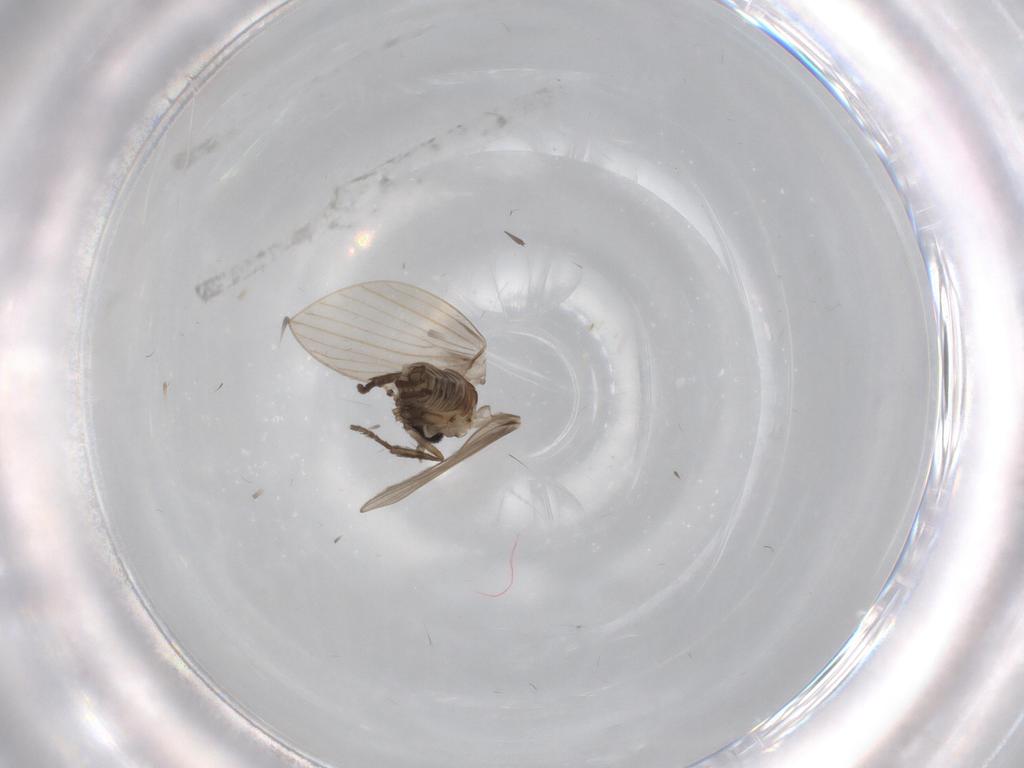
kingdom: Animalia
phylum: Arthropoda
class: Insecta
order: Diptera
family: Psychodidae
